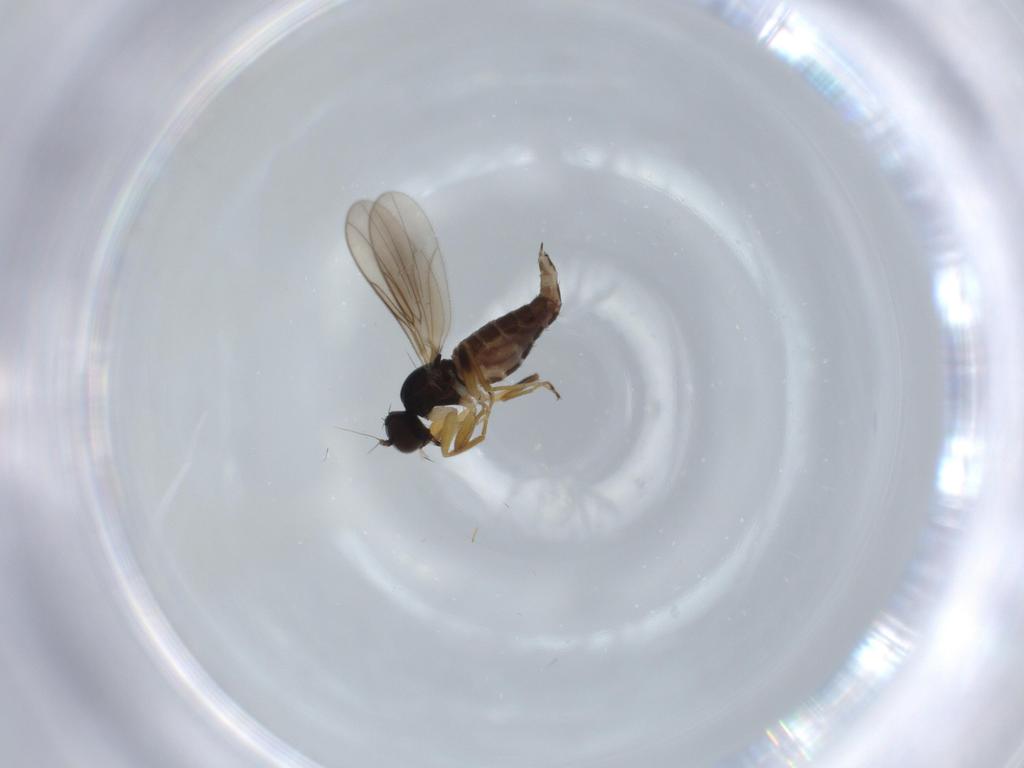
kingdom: Animalia
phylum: Arthropoda
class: Insecta
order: Diptera
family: Hybotidae
